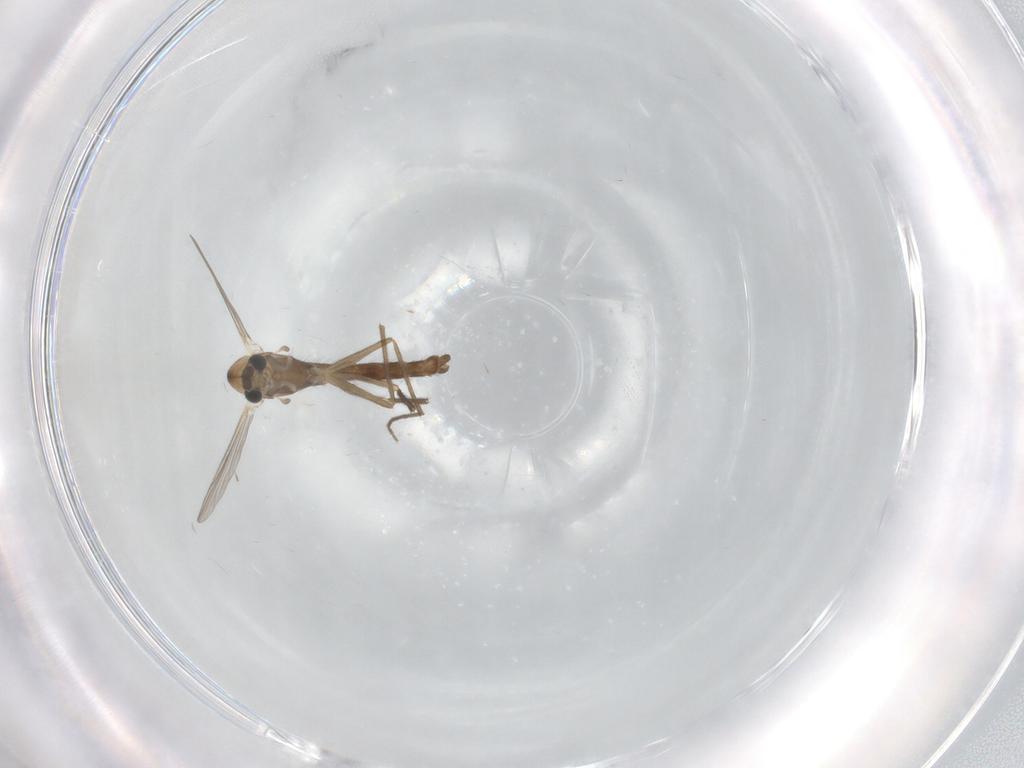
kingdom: Animalia
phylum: Arthropoda
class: Insecta
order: Diptera
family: Chironomidae
